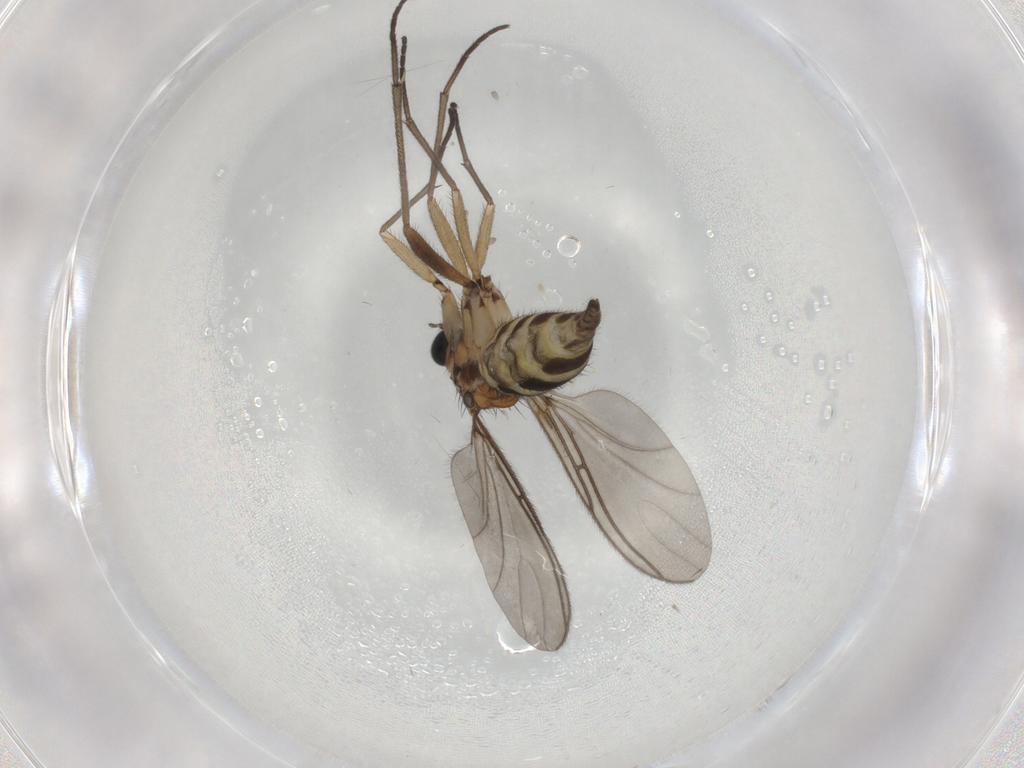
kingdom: Animalia
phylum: Arthropoda
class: Insecta
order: Diptera
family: Sciaridae
